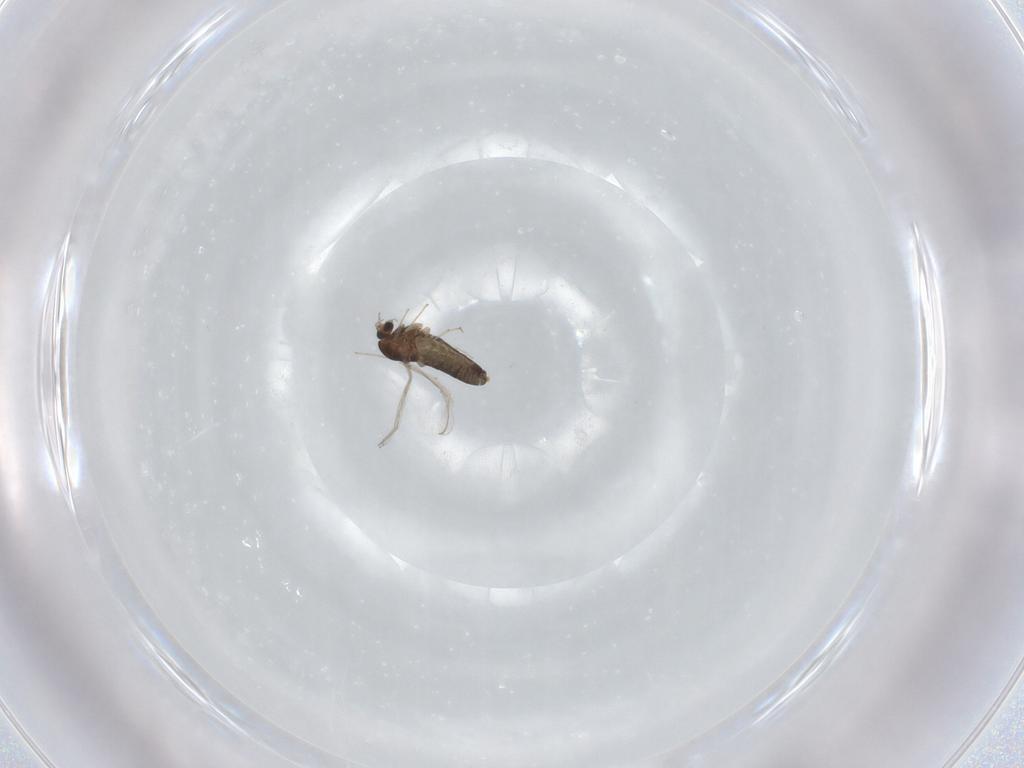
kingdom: Animalia
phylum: Arthropoda
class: Insecta
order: Diptera
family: Chironomidae
